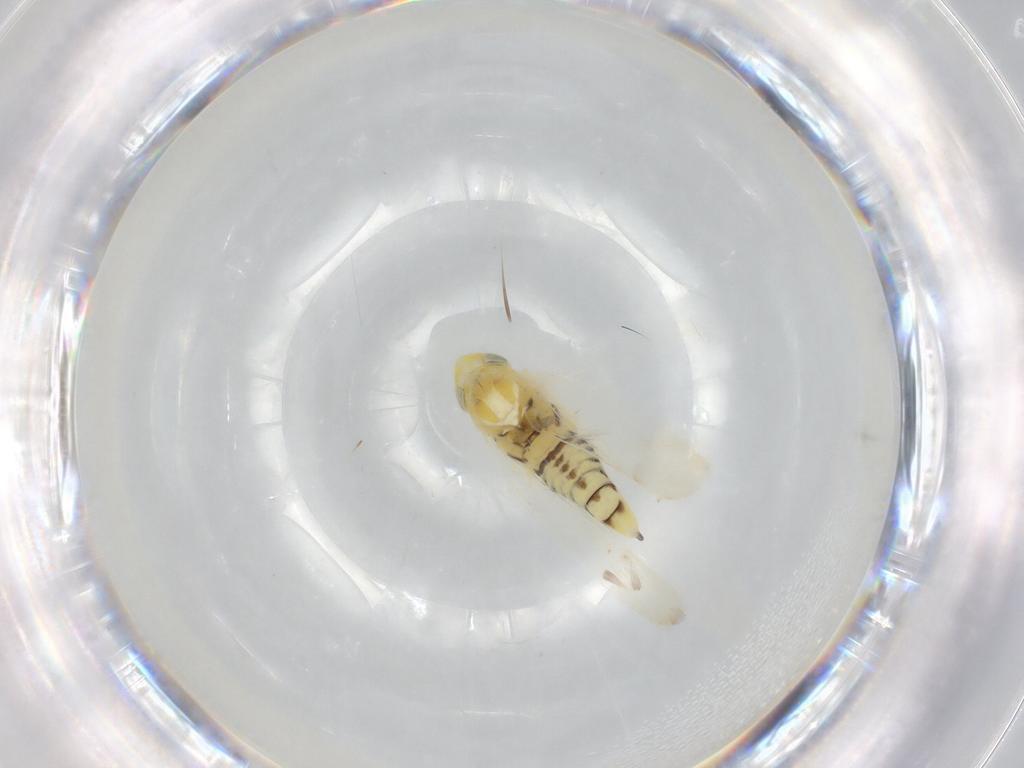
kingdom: Animalia
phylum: Arthropoda
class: Insecta
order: Hemiptera
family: Cicadellidae
